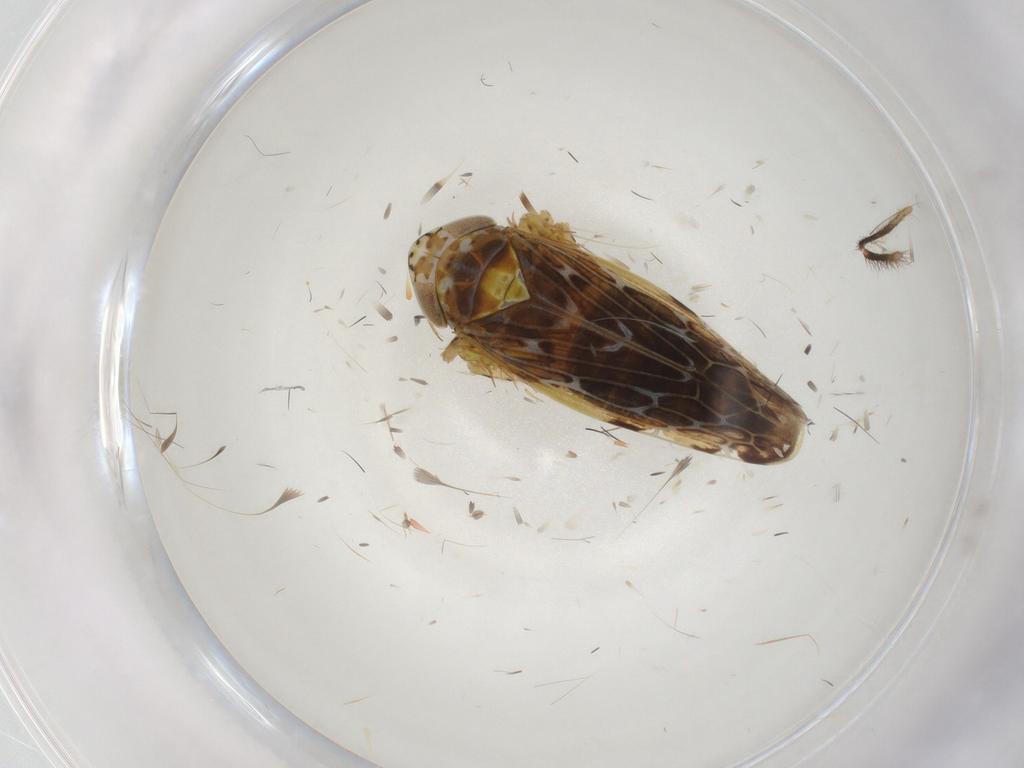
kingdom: Animalia
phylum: Arthropoda
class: Insecta
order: Hemiptera
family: Cicadellidae
